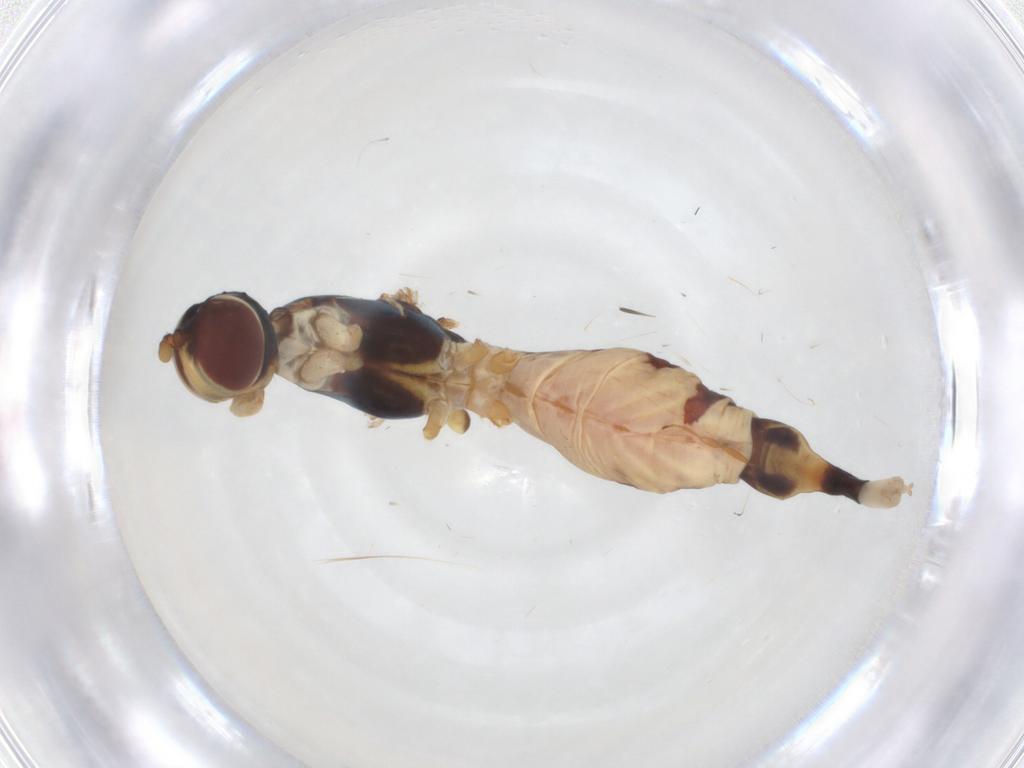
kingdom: Animalia
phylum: Arthropoda
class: Insecta
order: Diptera
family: Micropezidae
